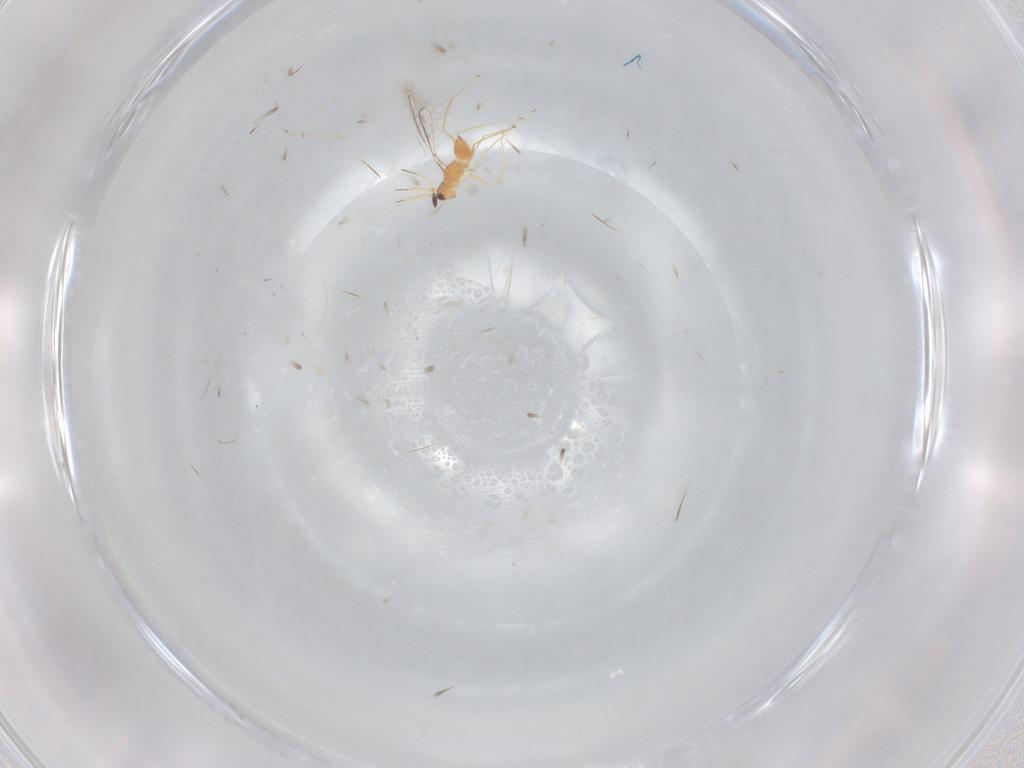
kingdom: Animalia
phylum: Arthropoda
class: Insecta
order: Hymenoptera
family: Mymaridae
